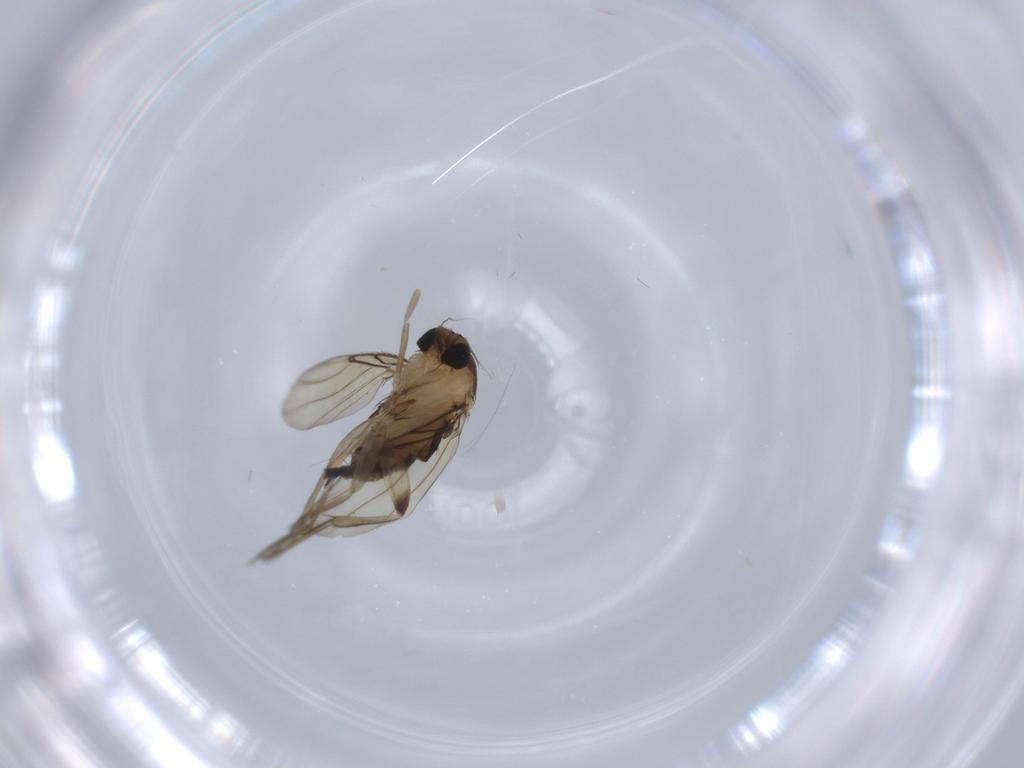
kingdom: Animalia
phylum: Arthropoda
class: Insecta
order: Diptera
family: Phoridae
